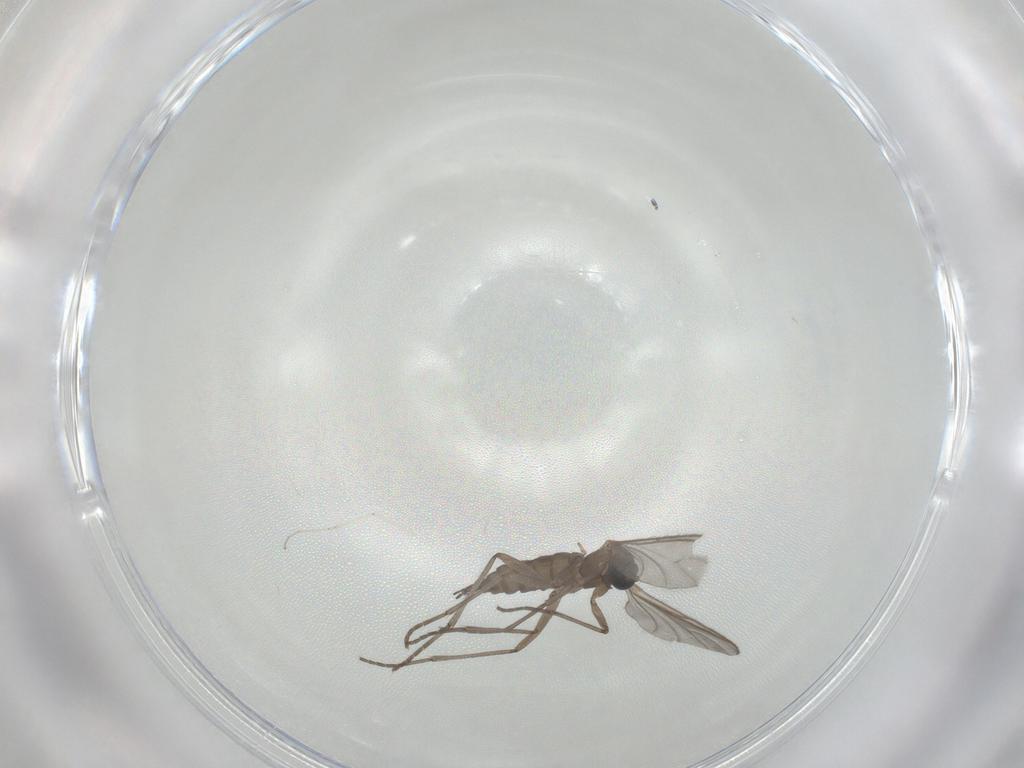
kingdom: Animalia
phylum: Arthropoda
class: Insecta
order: Diptera
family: Sciaridae
